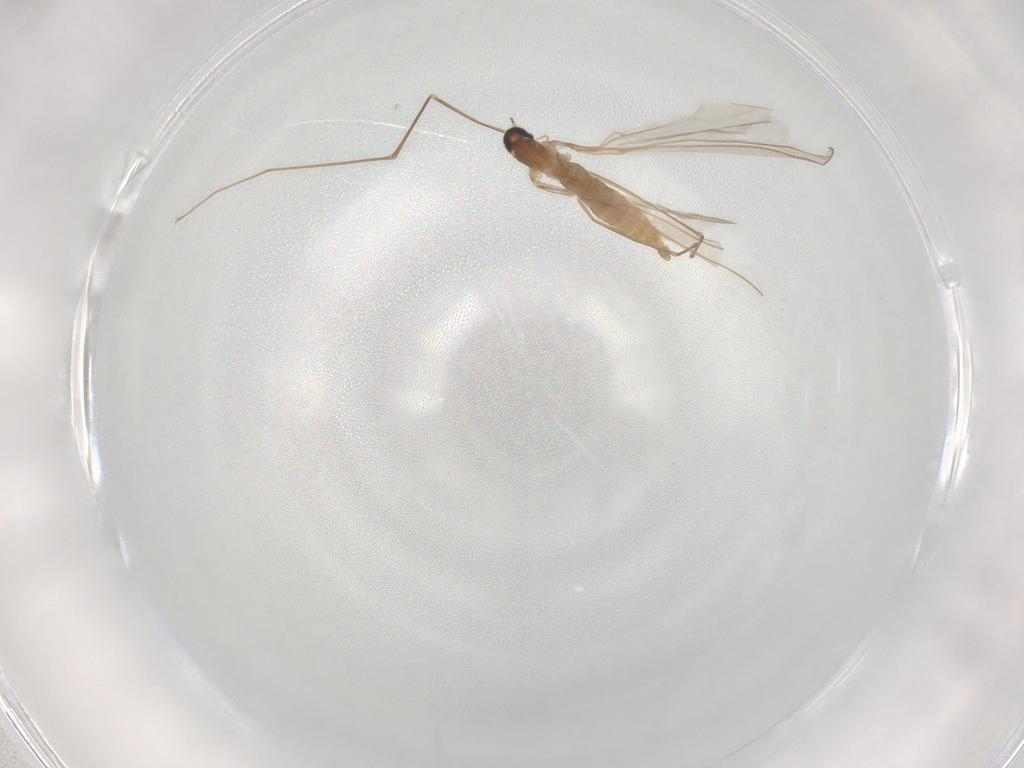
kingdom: Animalia
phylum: Arthropoda
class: Insecta
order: Diptera
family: Cecidomyiidae
